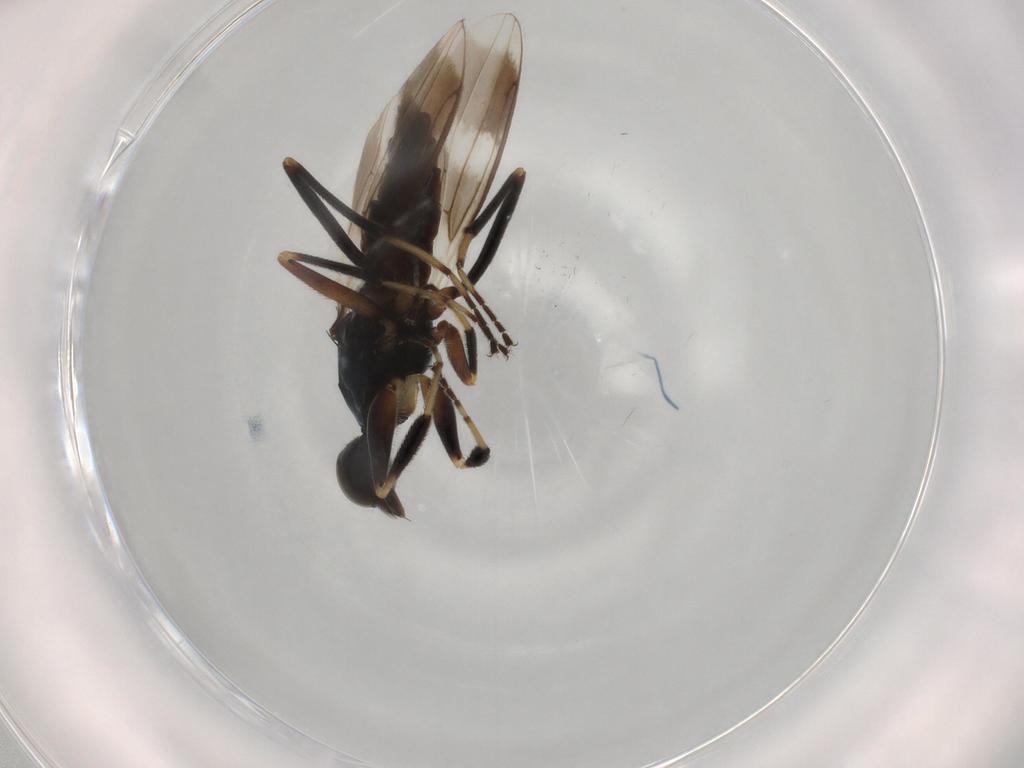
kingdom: Animalia
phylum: Arthropoda
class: Insecta
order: Diptera
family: Hybotidae
